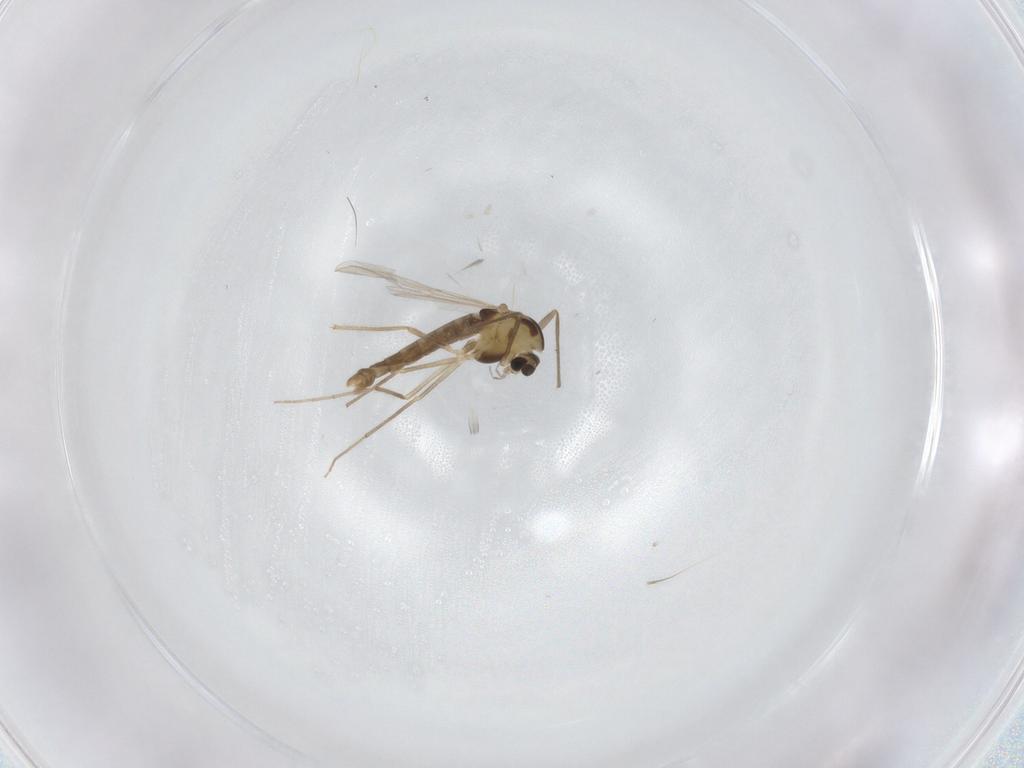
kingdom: Animalia
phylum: Arthropoda
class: Insecta
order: Diptera
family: Chironomidae
